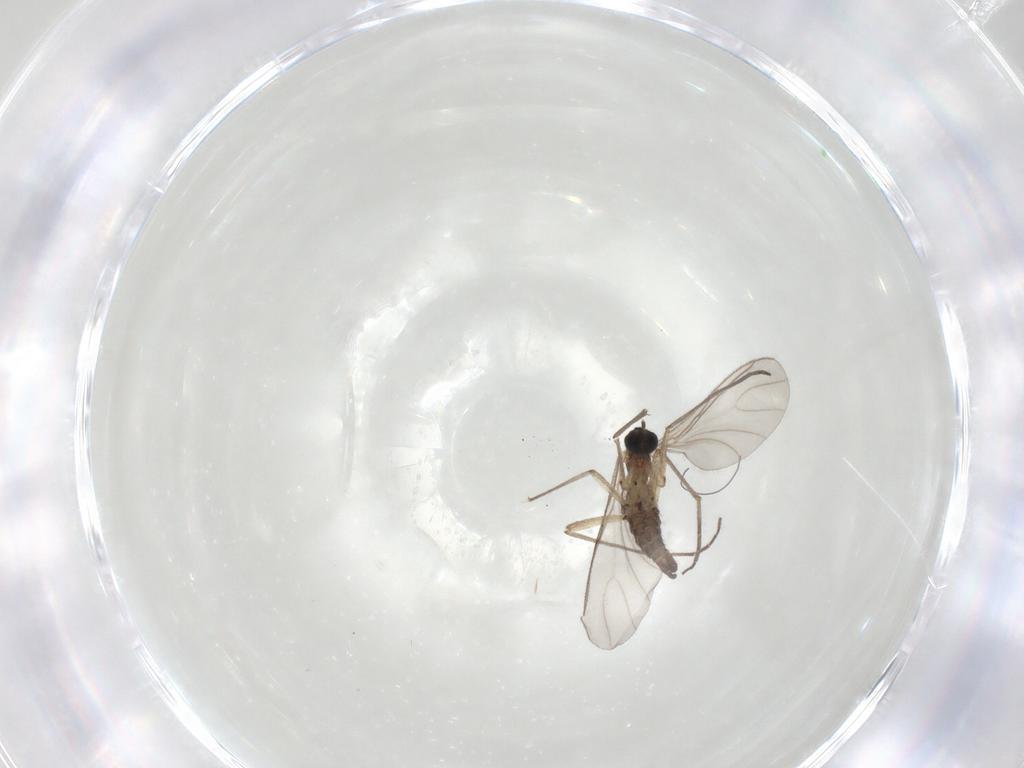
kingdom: Animalia
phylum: Arthropoda
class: Insecta
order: Diptera
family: Sciaridae
